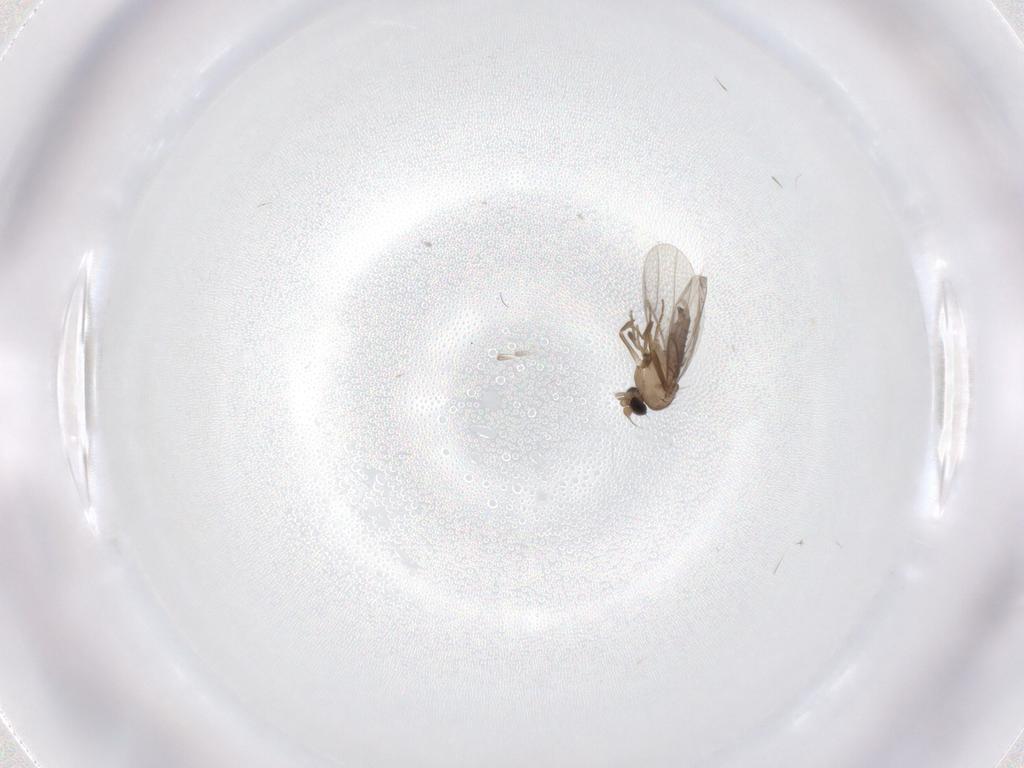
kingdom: Animalia
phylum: Arthropoda
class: Insecta
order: Diptera
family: Cecidomyiidae
